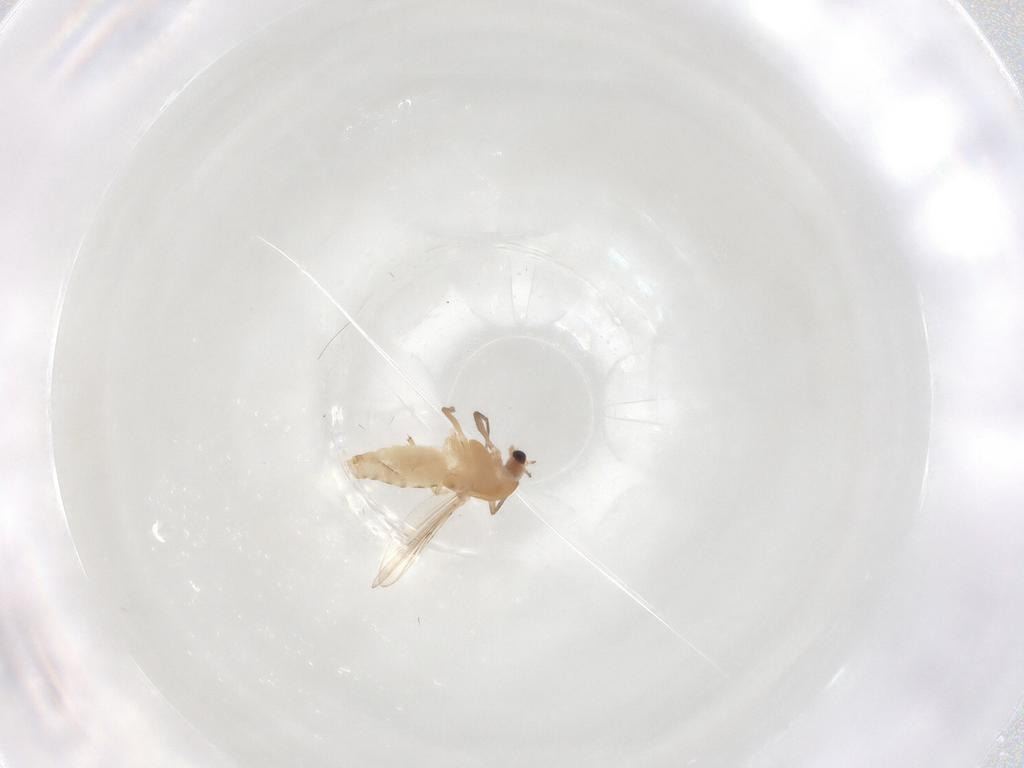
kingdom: Animalia
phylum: Arthropoda
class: Insecta
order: Diptera
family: Chironomidae
